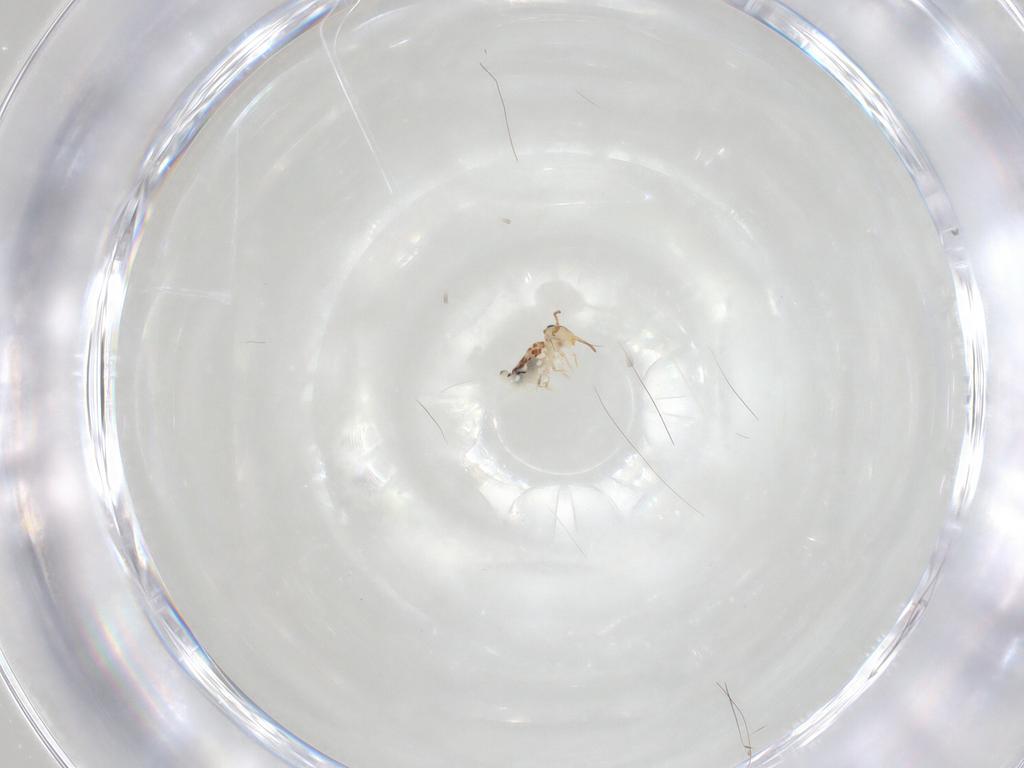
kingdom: Animalia
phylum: Arthropoda
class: Collembola
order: Symphypleona
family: Bourletiellidae
